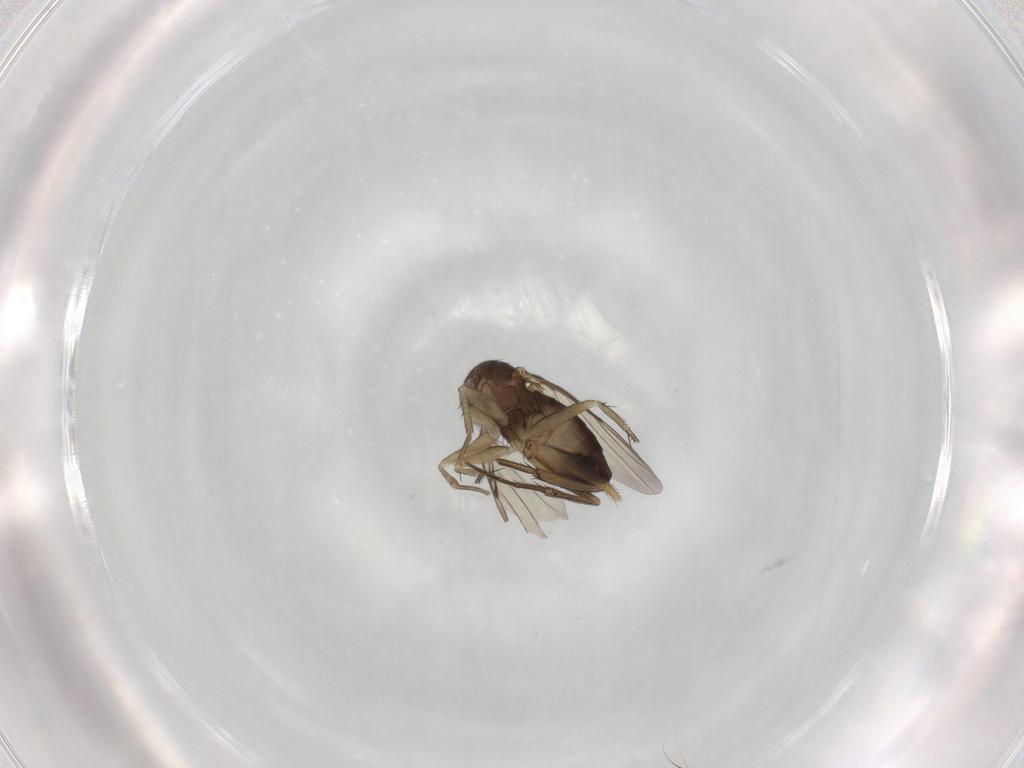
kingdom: Animalia
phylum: Arthropoda
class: Insecta
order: Diptera
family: Phoridae
